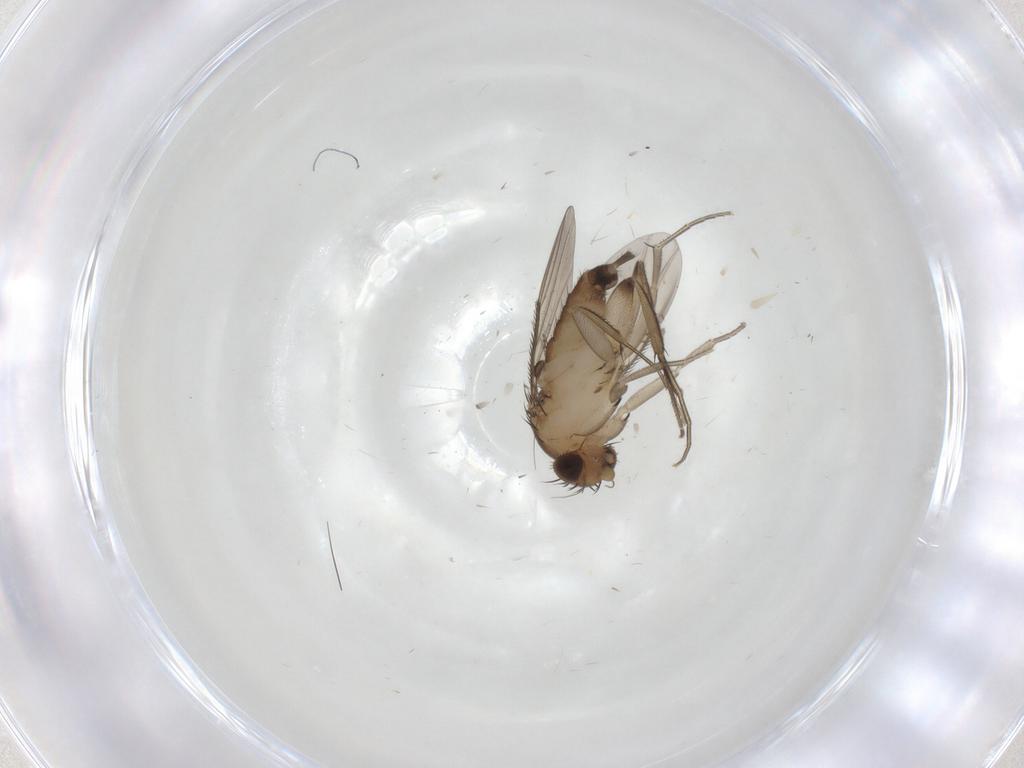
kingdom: Animalia
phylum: Arthropoda
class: Insecta
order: Diptera
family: Phoridae
